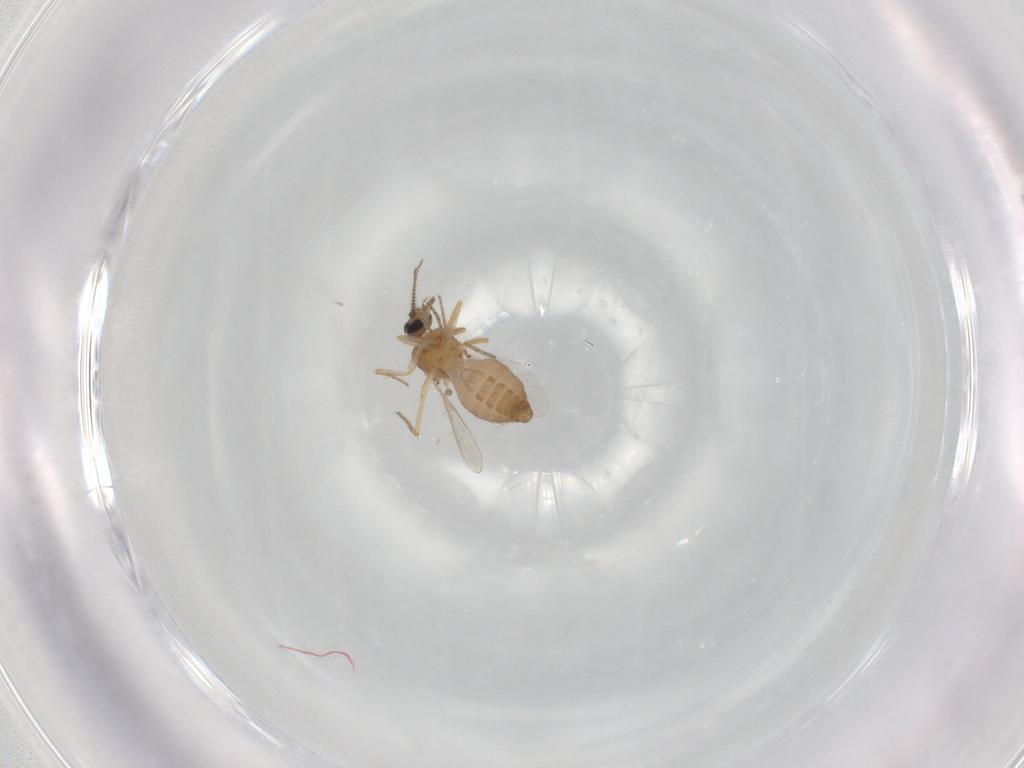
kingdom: Animalia
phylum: Arthropoda
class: Insecta
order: Diptera
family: Ceratopogonidae
